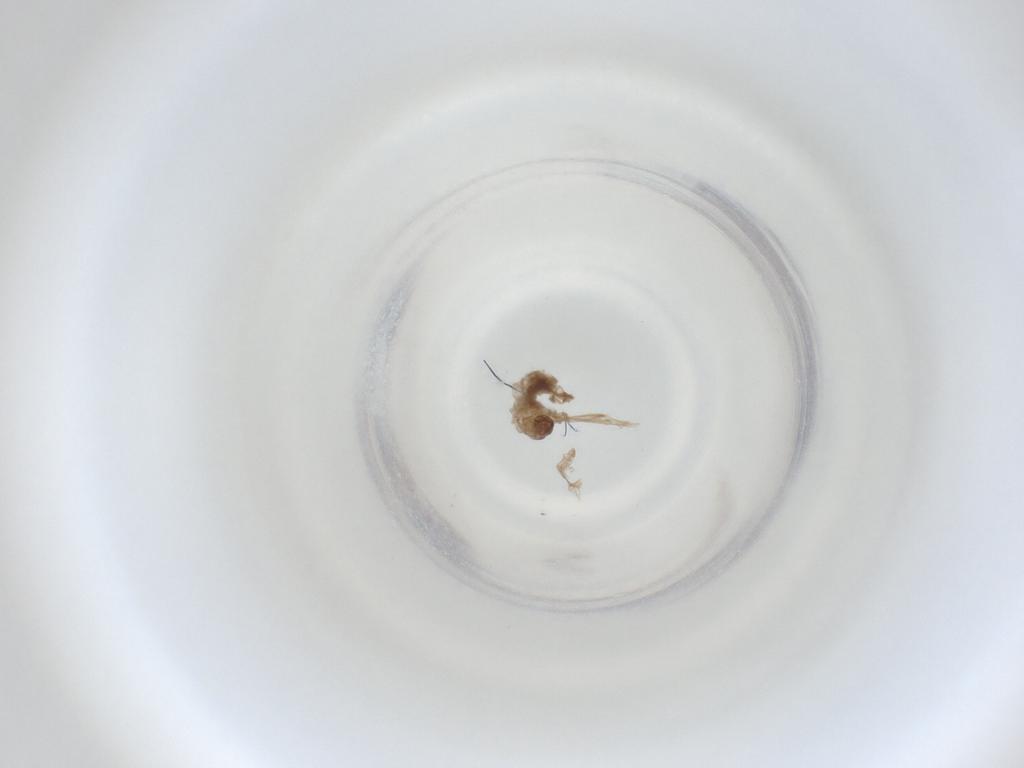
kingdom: Animalia
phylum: Arthropoda
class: Insecta
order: Diptera
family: Cecidomyiidae
